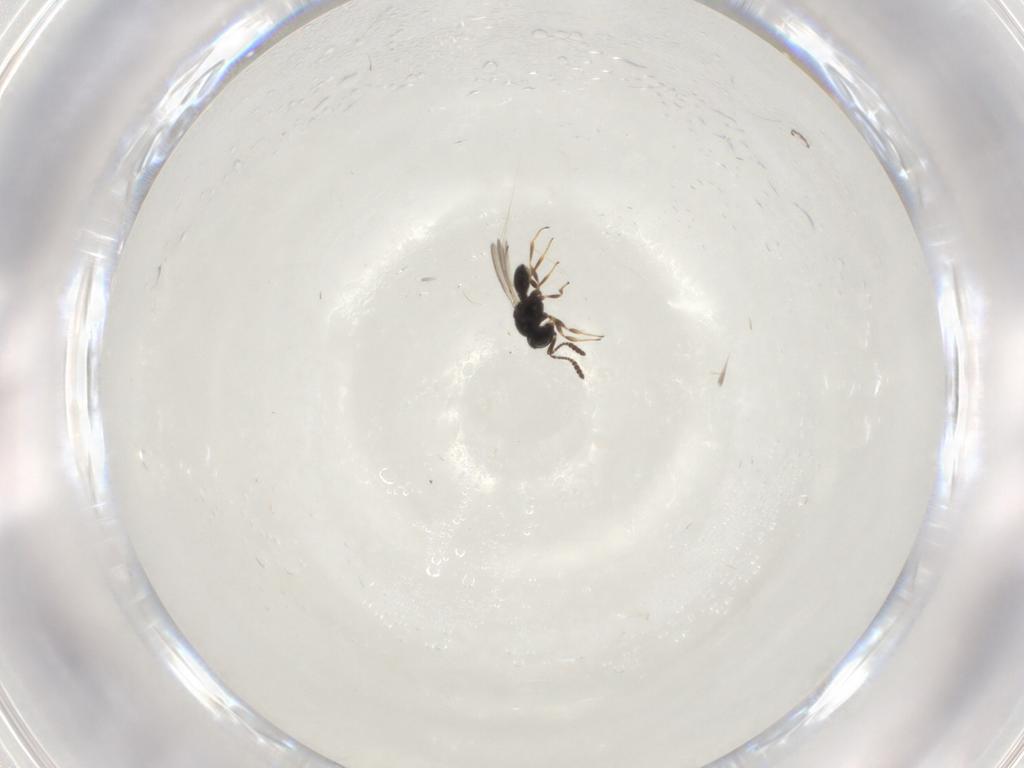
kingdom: Animalia
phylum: Arthropoda
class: Insecta
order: Hymenoptera
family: Scelionidae
